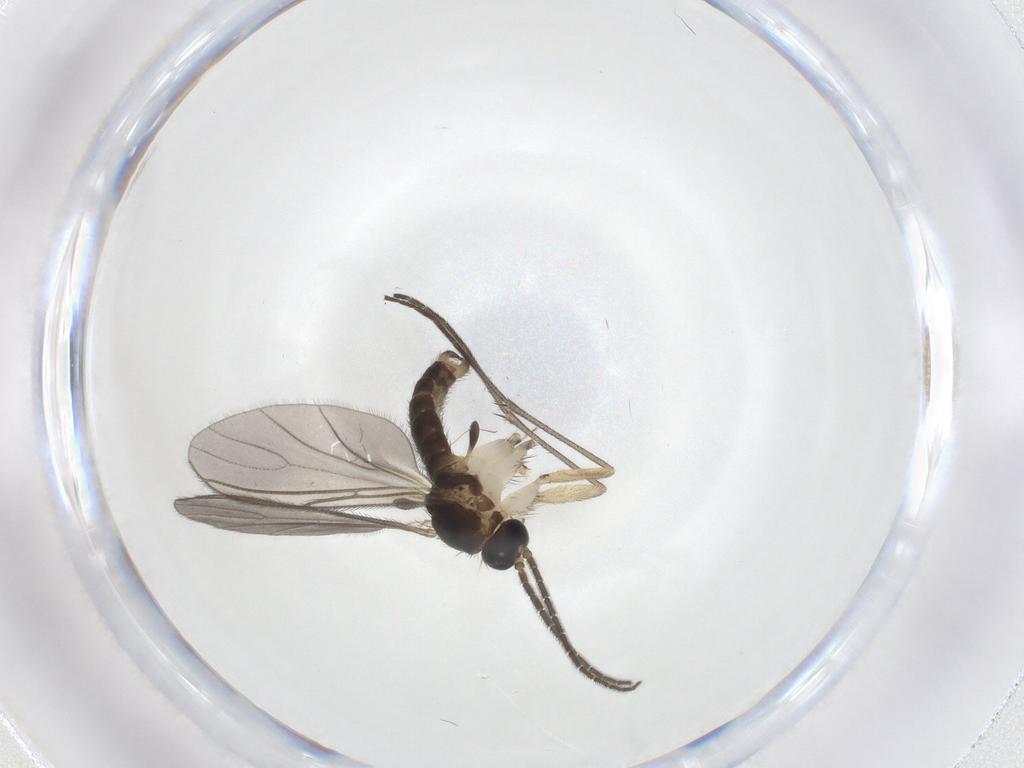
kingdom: Animalia
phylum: Arthropoda
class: Insecta
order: Diptera
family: Sciaridae
